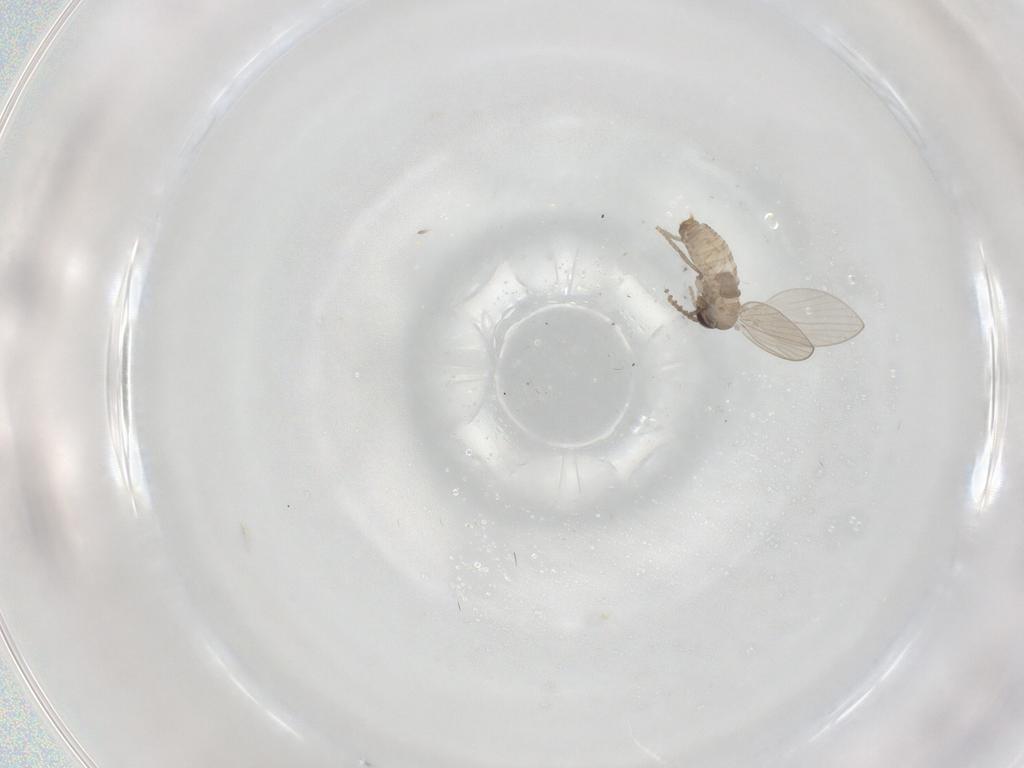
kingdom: Animalia
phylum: Arthropoda
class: Insecta
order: Diptera
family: Psychodidae
